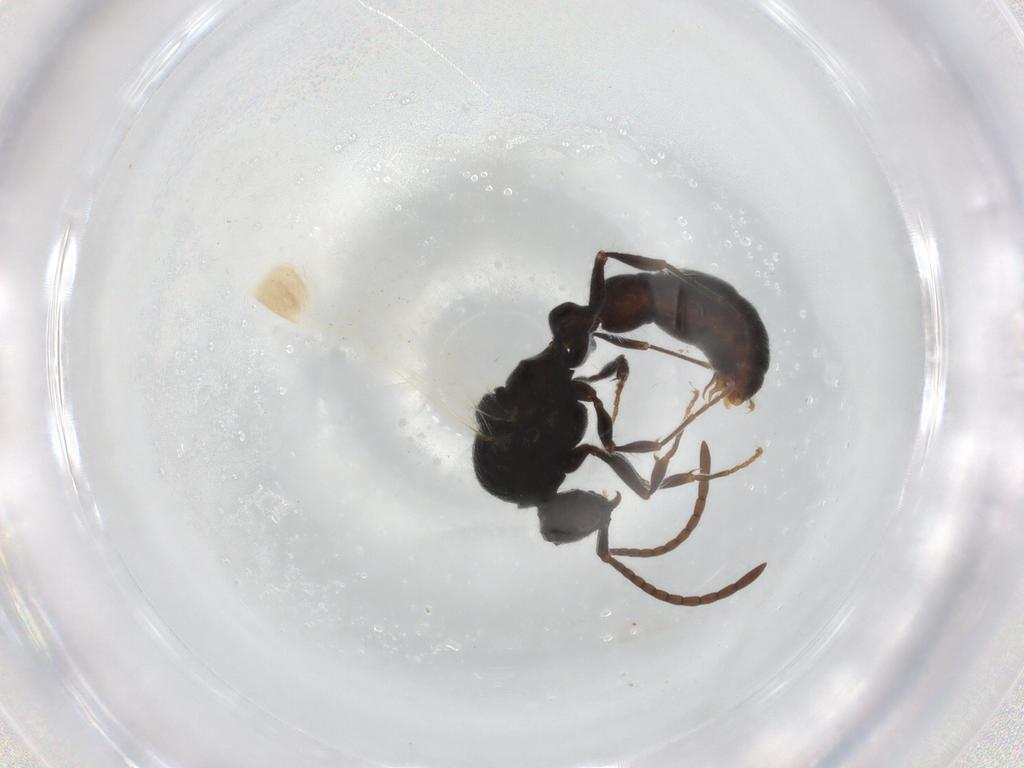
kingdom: Animalia
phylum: Arthropoda
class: Insecta
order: Hymenoptera
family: Formicidae
